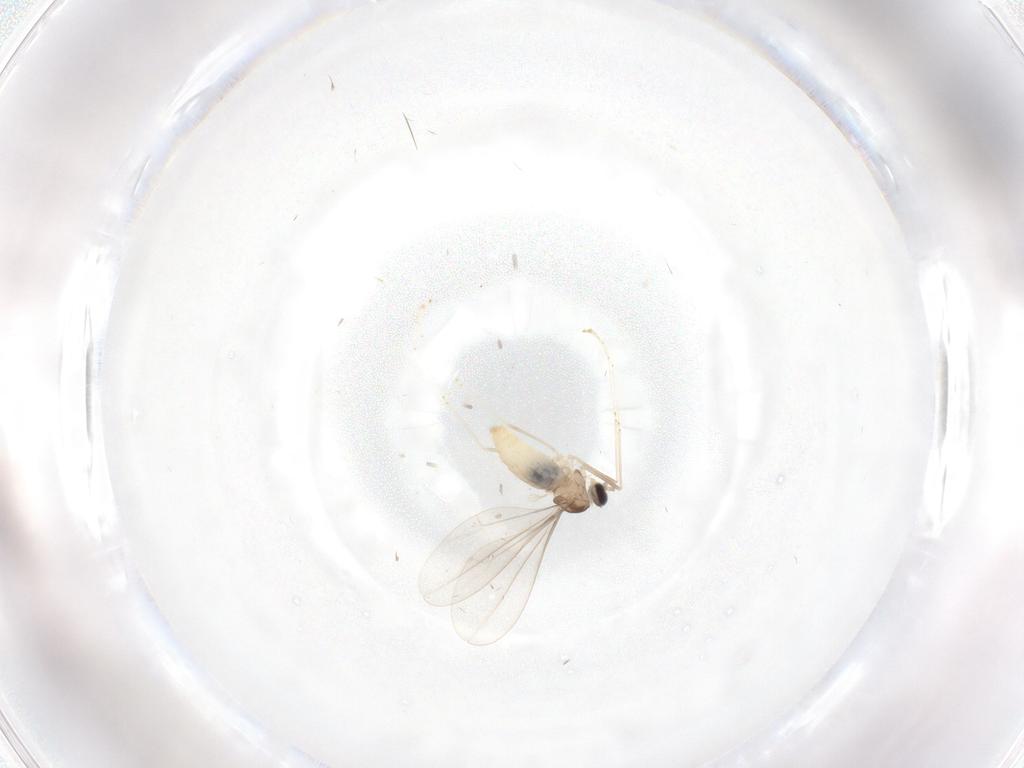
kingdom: Animalia
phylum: Arthropoda
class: Insecta
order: Diptera
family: Cecidomyiidae
